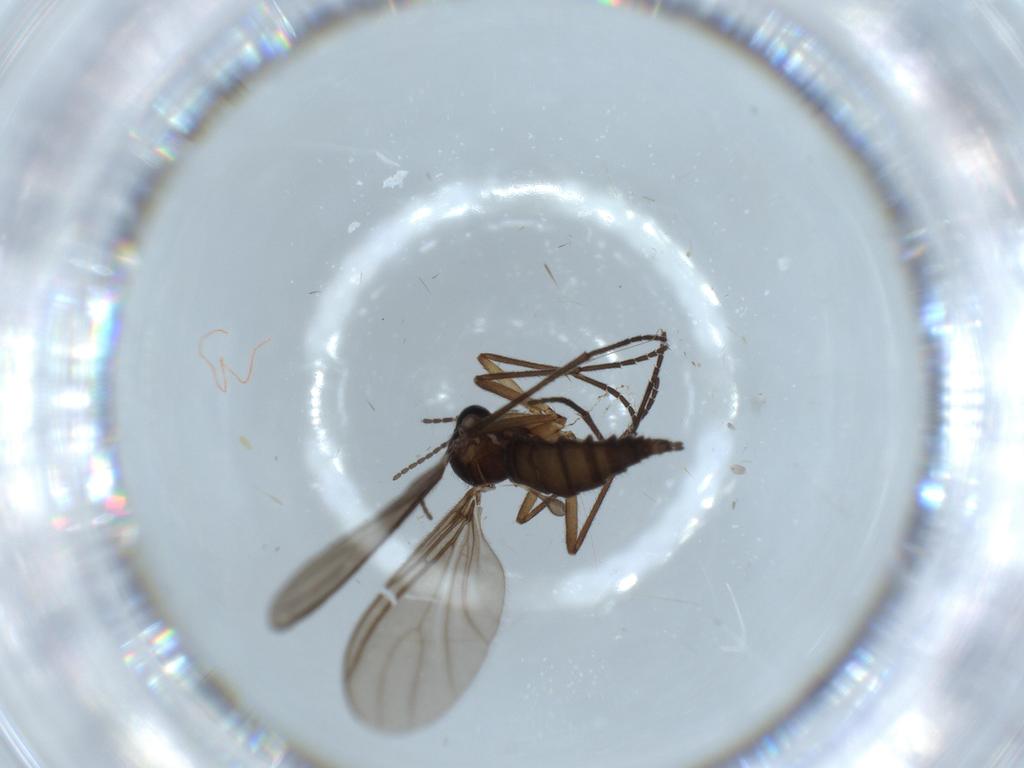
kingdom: Animalia
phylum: Arthropoda
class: Insecta
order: Diptera
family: Sciaridae
